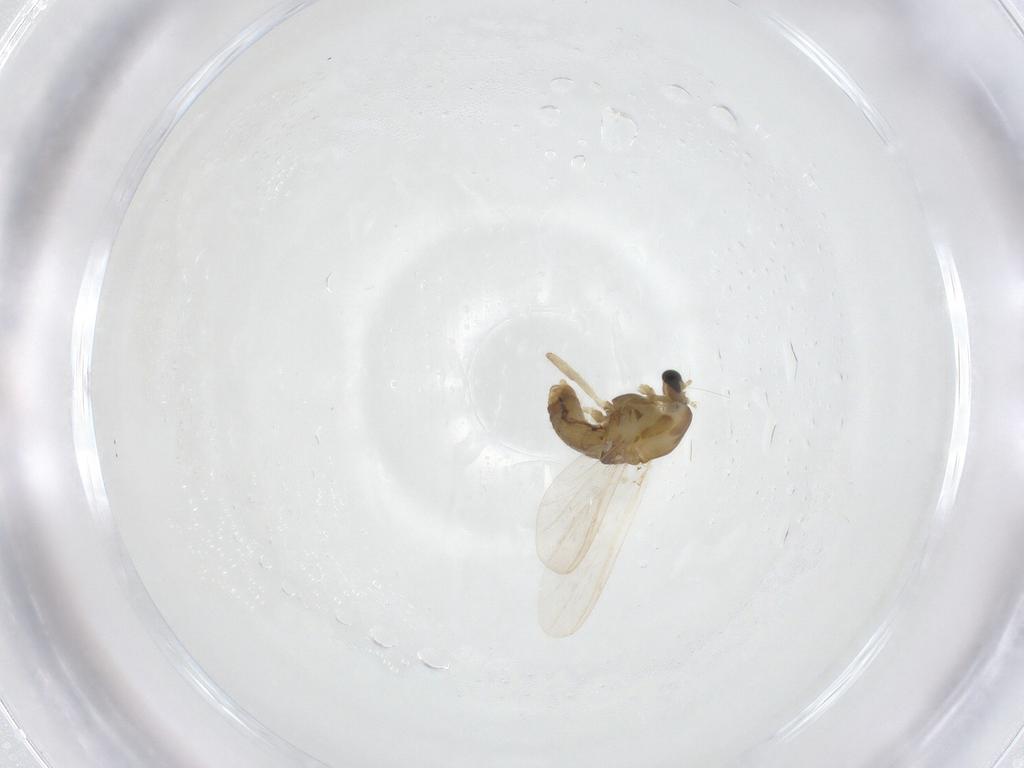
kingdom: Animalia
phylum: Arthropoda
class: Insecta
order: Diptera
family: Chironomidae
